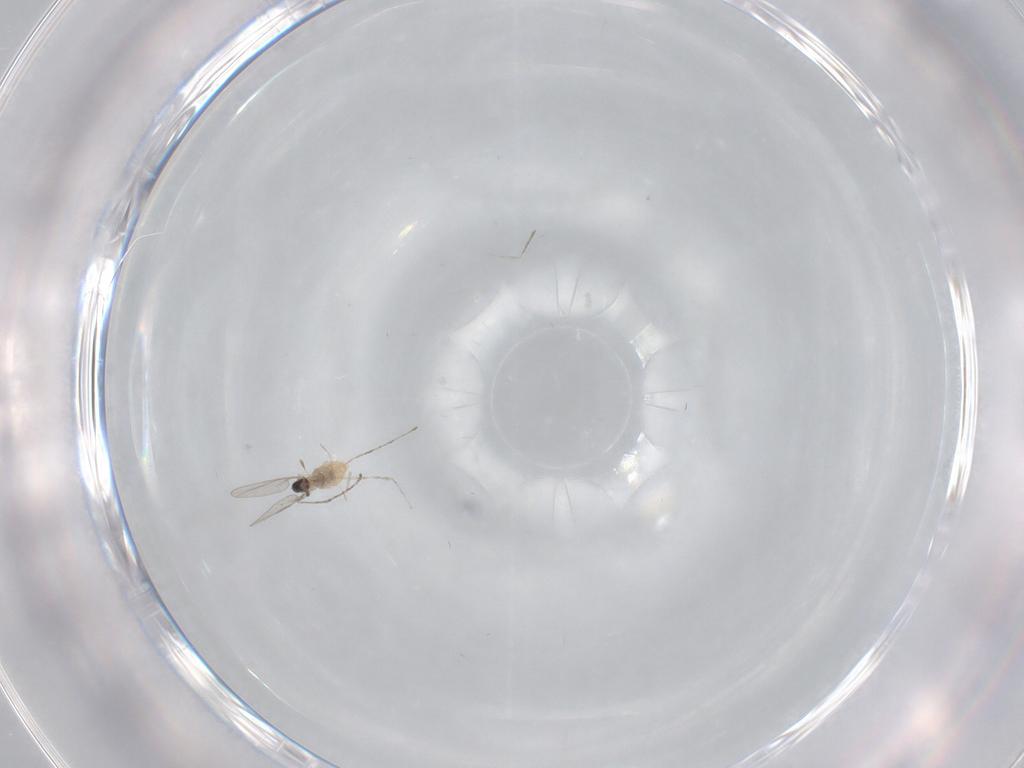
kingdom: Animalia
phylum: Arthropoda
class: Insecta
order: Diptera
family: Cecidomyiidae
